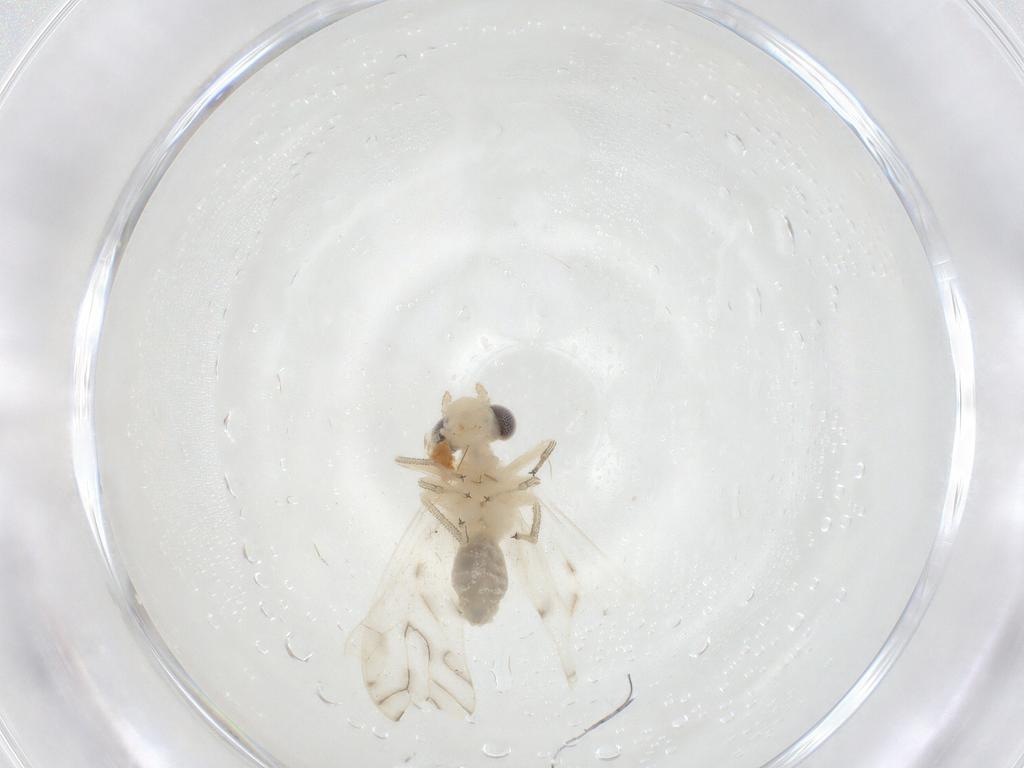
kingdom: Animalia
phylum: Arthropoda
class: Insecta
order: Psocodea
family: Caeciliusidae
